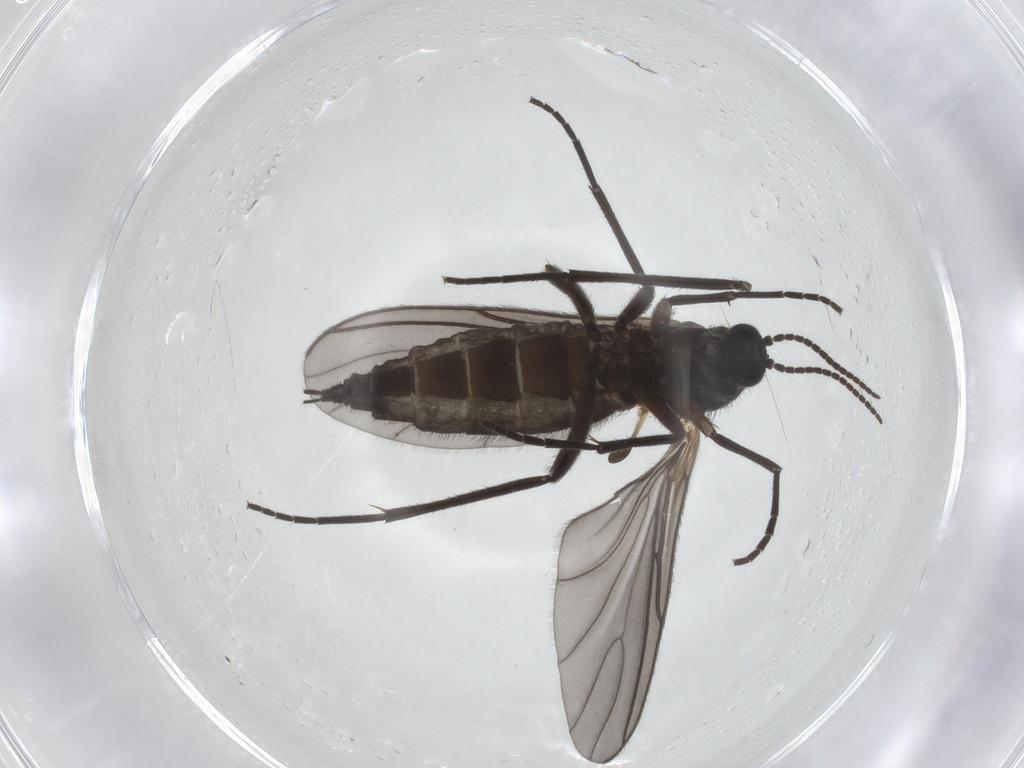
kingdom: Animalia
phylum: Arthropoda
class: Insecta
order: Diptera
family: Sciaridae
